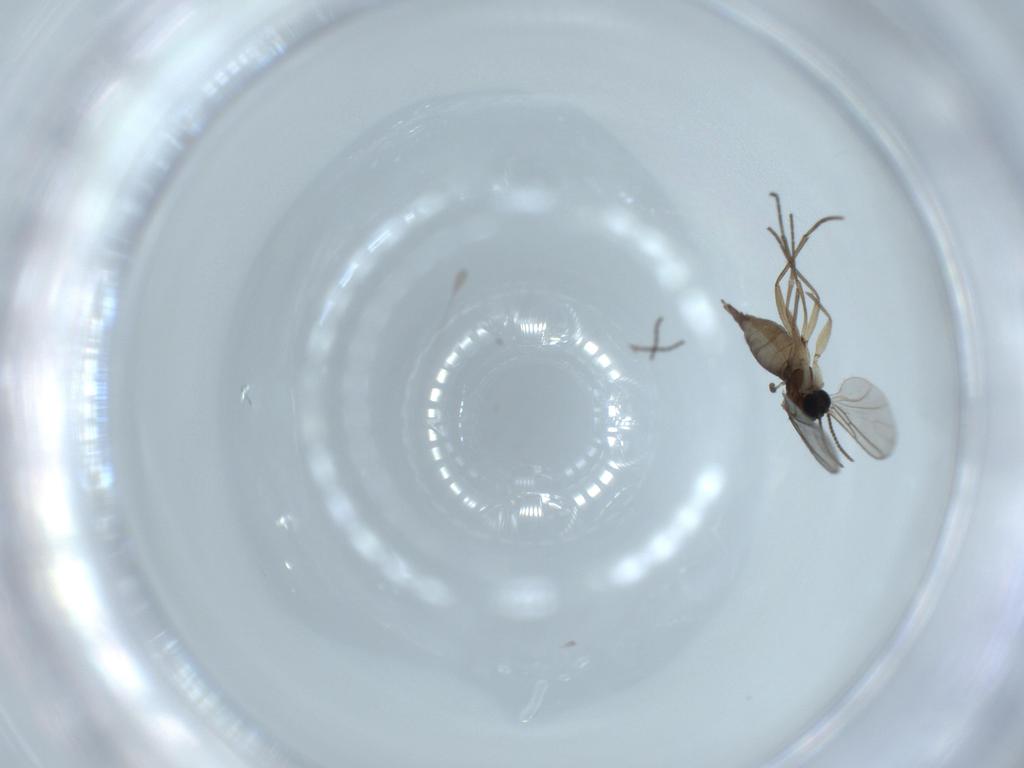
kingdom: Animalia
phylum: Arthropoda
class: Insecta
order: Diptera
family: Sciaridae
